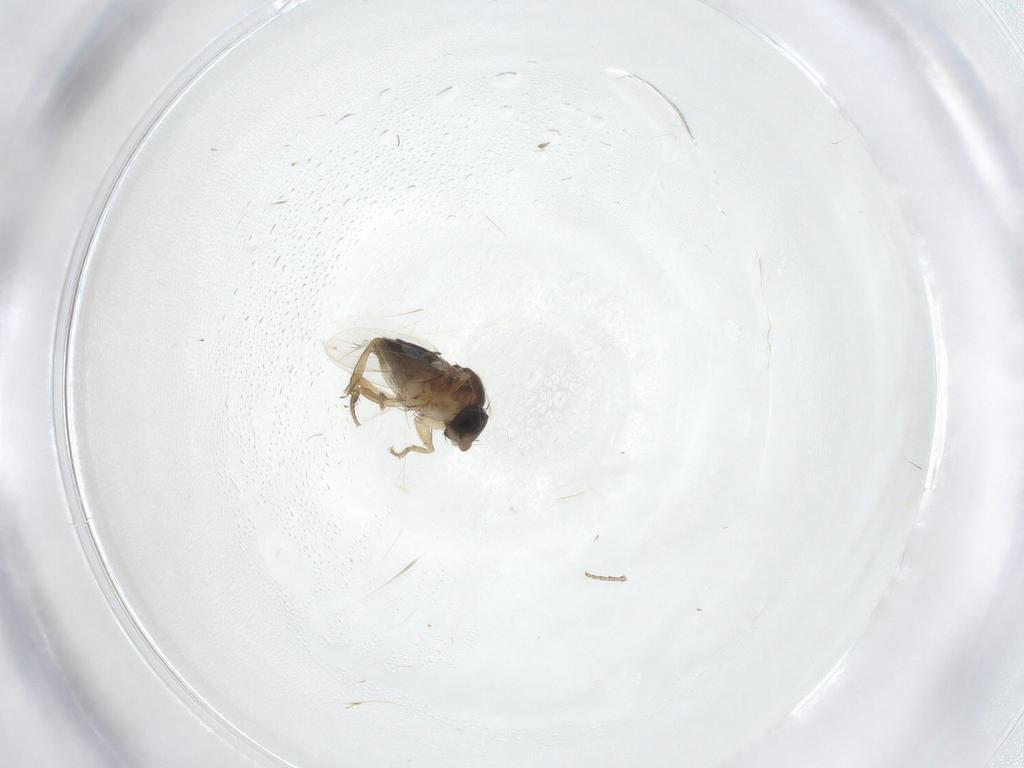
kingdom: Animalia
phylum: Arthropoda
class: Insecta
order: Diptera
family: Phoridae
